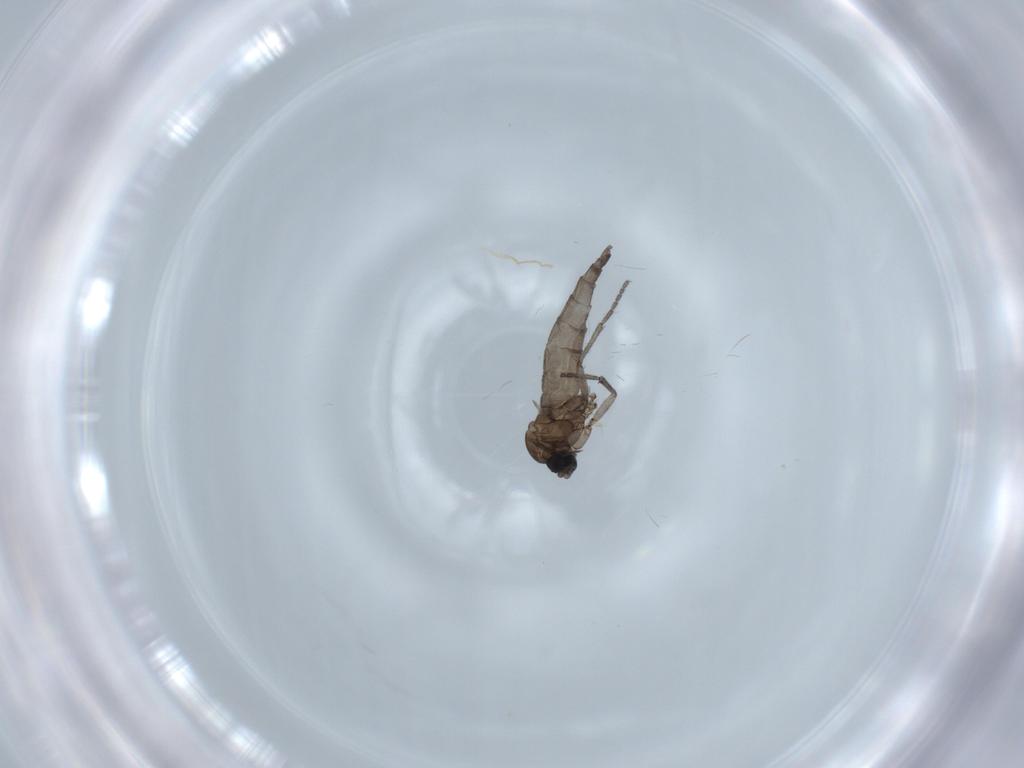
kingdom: Animalia
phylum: Arthropoda
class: Insecta
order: Diptera
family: Sciaridae
